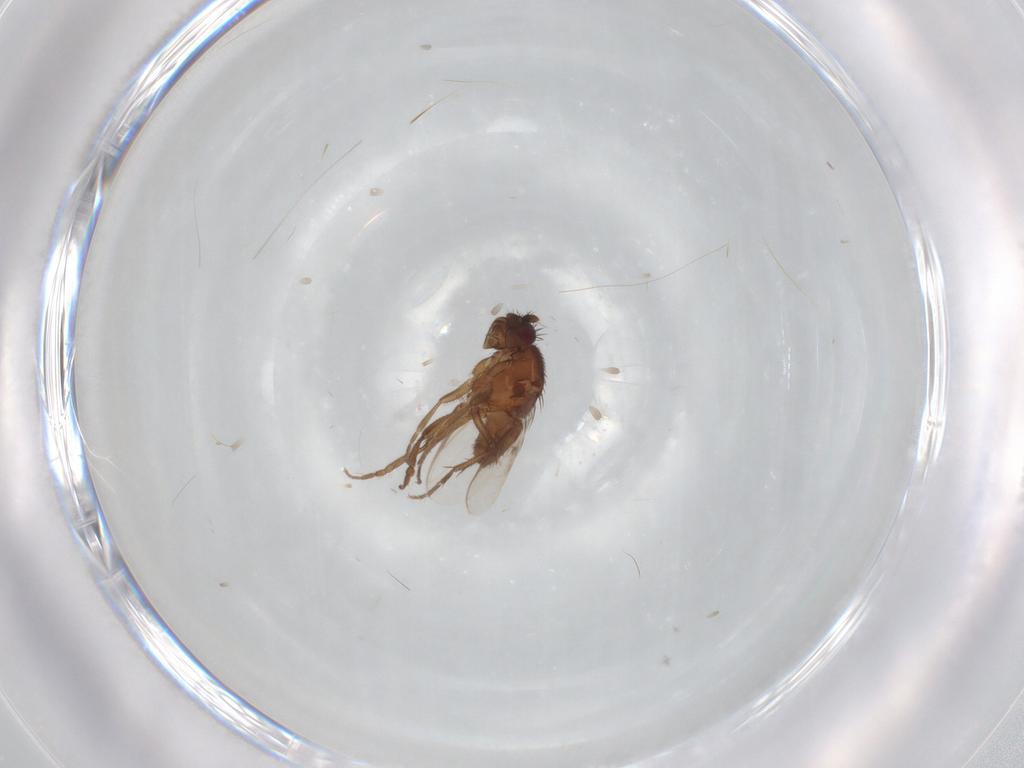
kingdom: Animalia
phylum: Arthropoda
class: Insecta
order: Diptera
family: Sphaeroceridae
